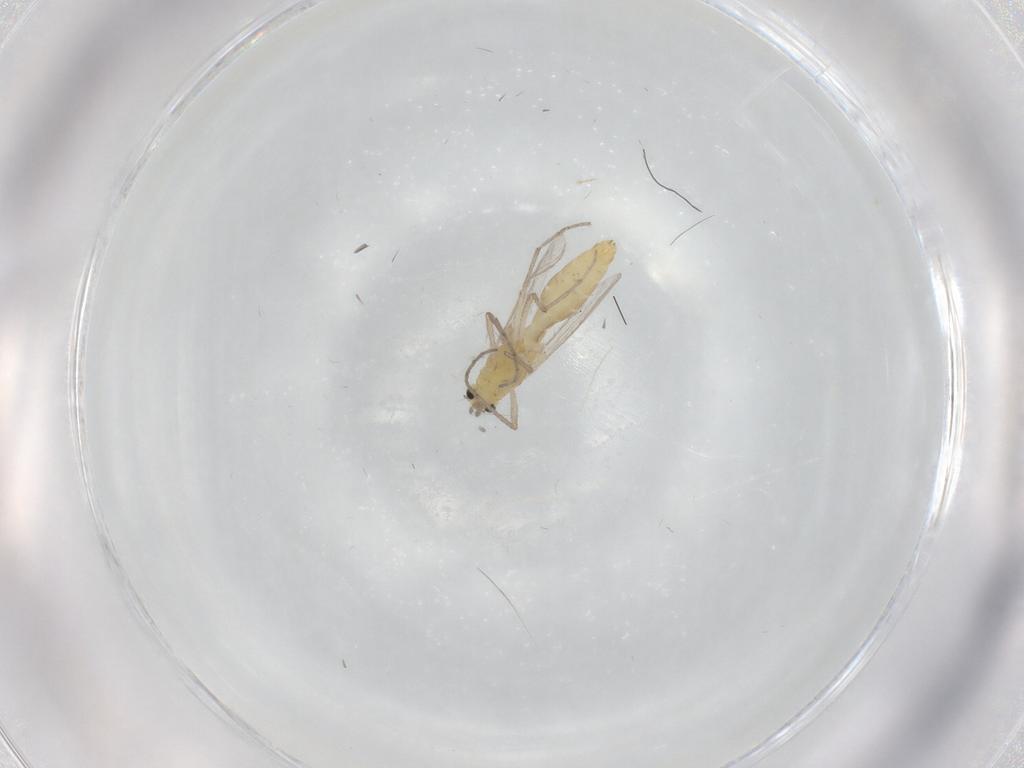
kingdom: Animalia
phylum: Arthropoda
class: Insecta
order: Diptera
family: Chironomidae
